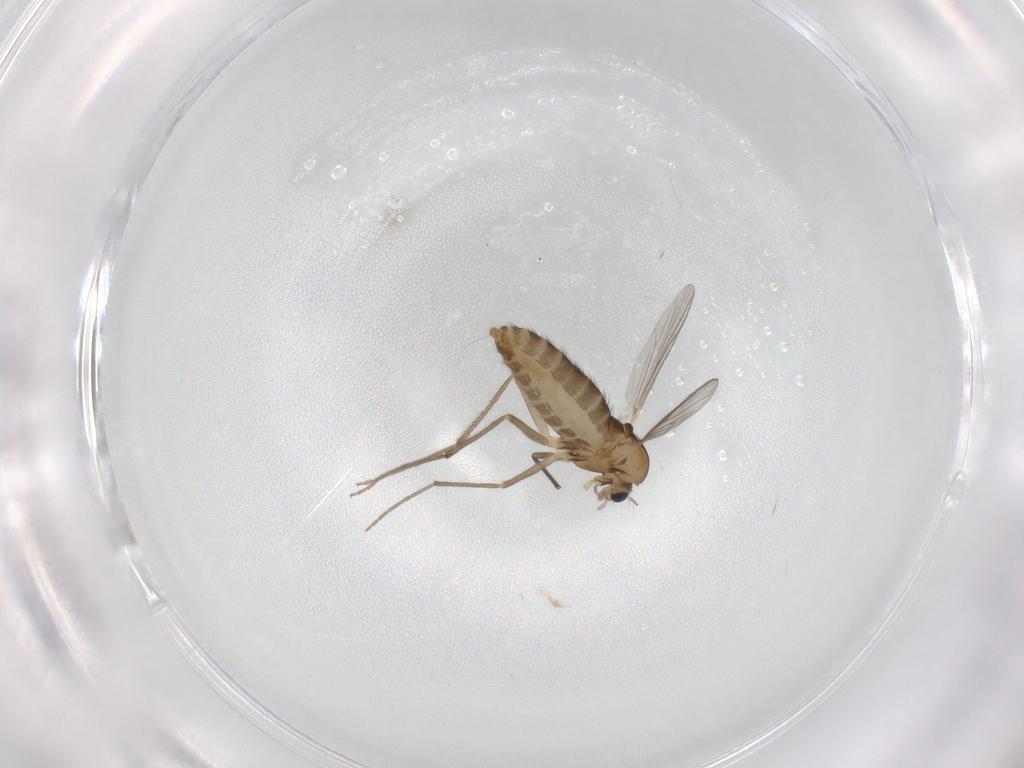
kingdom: Animalia
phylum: Arthropoda
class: Insecta
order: Diptera
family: Chironomidae
